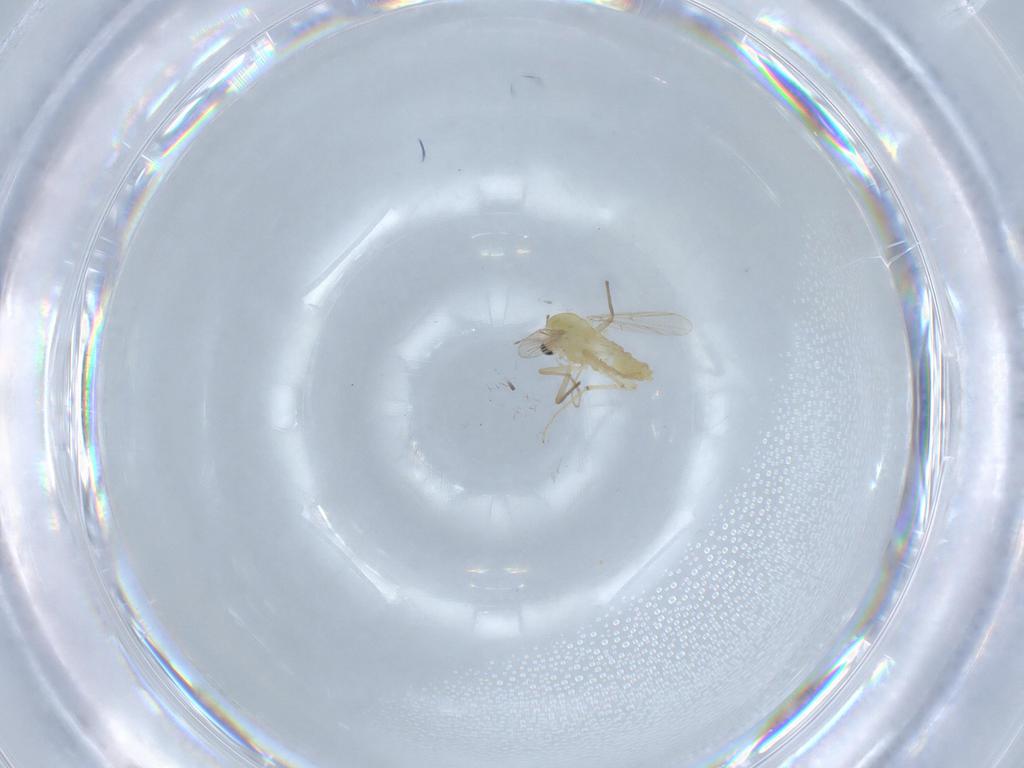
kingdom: Animalia
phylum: Arthropoda
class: Insecta
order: Diptera
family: Chironomidae
